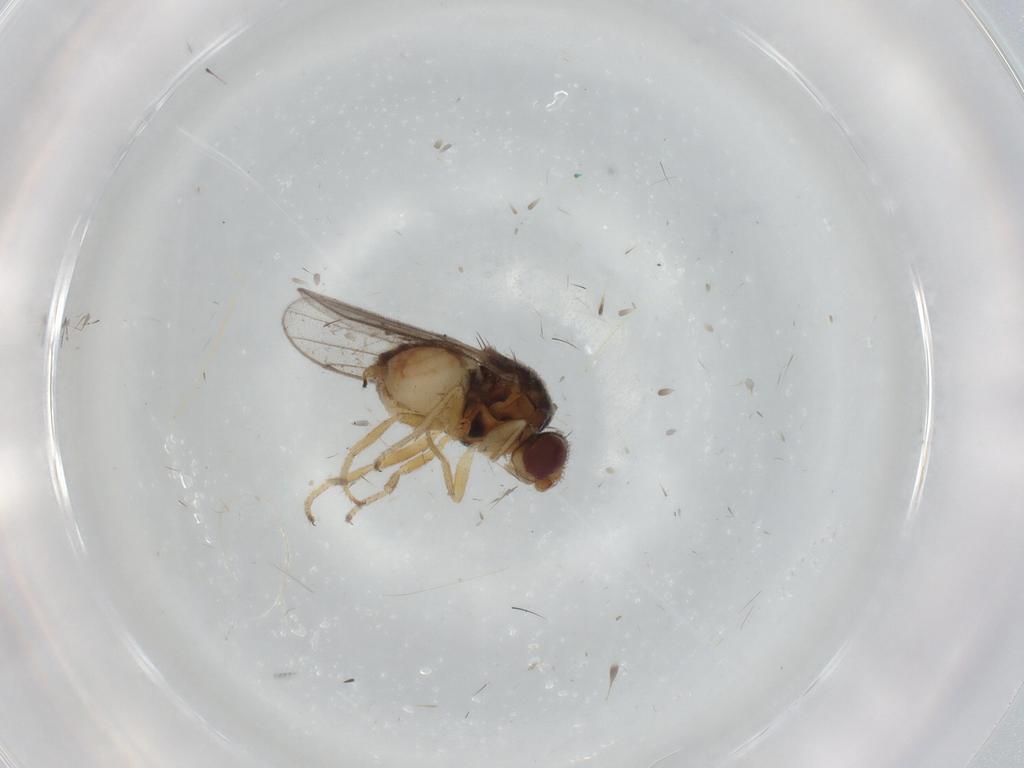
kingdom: Animalia
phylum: Arthropoda
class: Insecta
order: Diptera
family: Chloropidae
